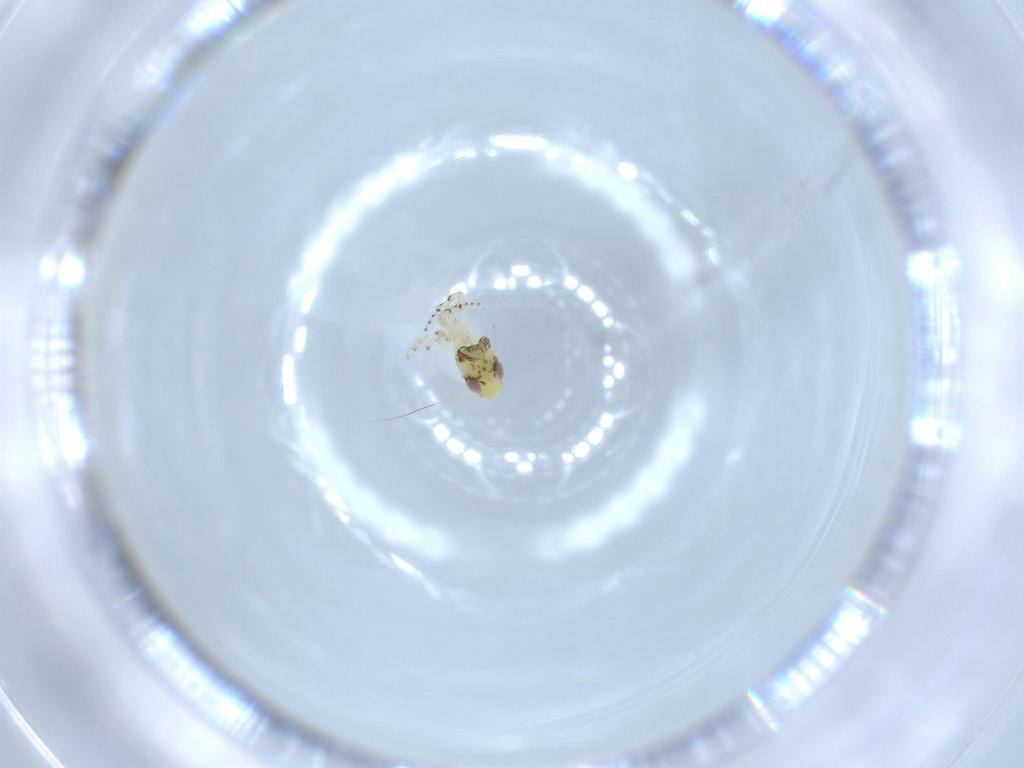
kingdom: Animalia
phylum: Arthropoda
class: Insecta
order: Hemiptera
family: Cicadellidae
